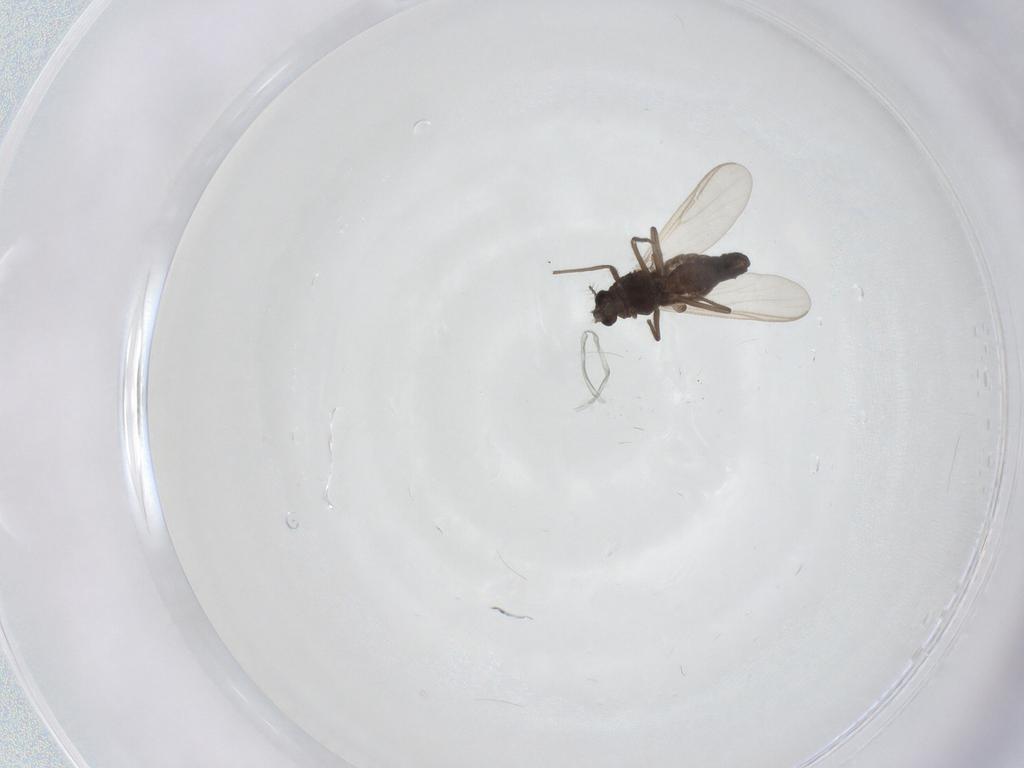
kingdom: Animalia
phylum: Arthropoda
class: Insecta
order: Diptera
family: Chironomidae
